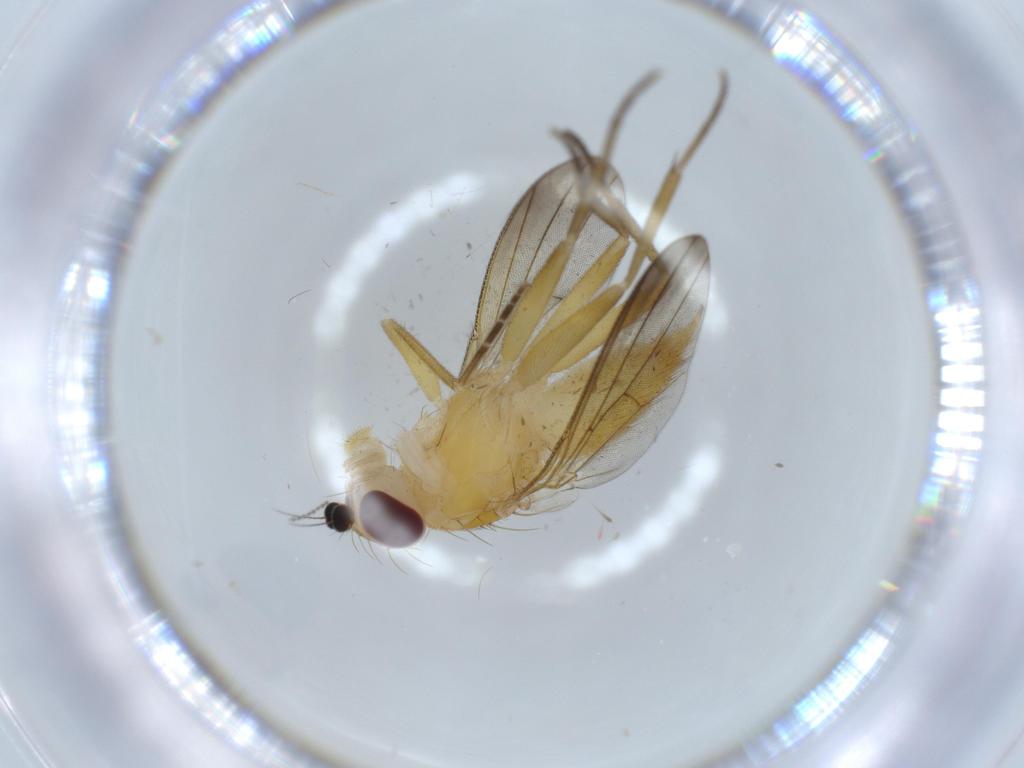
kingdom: Animalia
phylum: Arthropoda
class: Insecta
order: Diptera
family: Clusiidae
